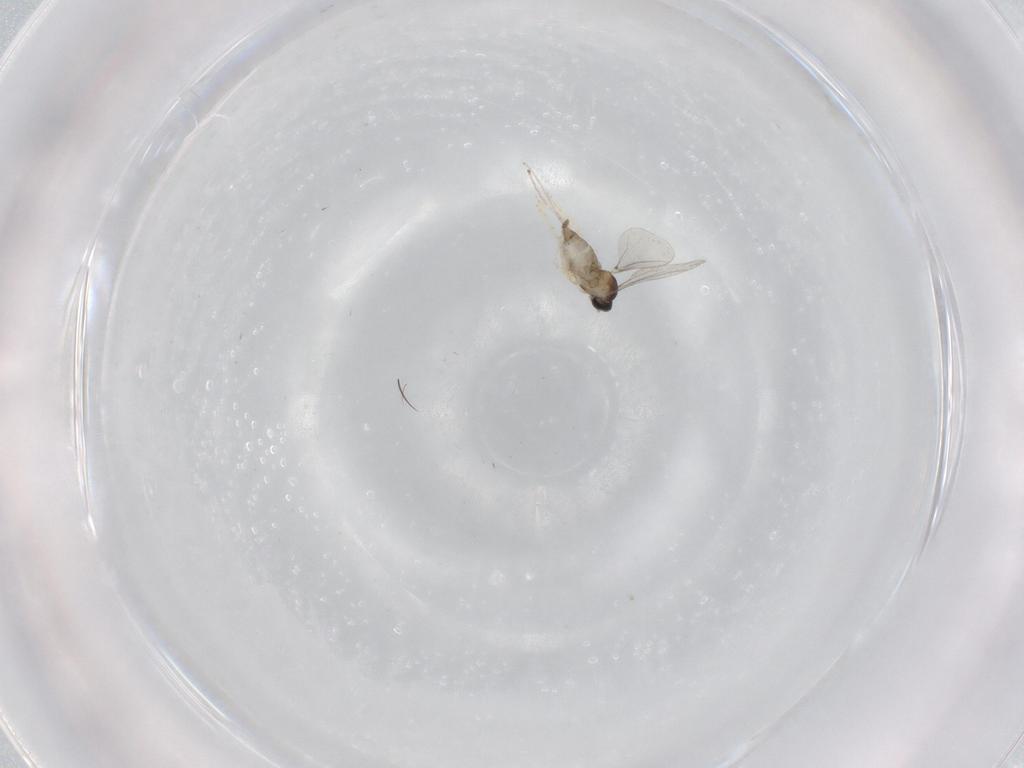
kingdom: Animalia
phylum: Arthropoda
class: Insecta
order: Diptera
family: Cecidomyiidae
